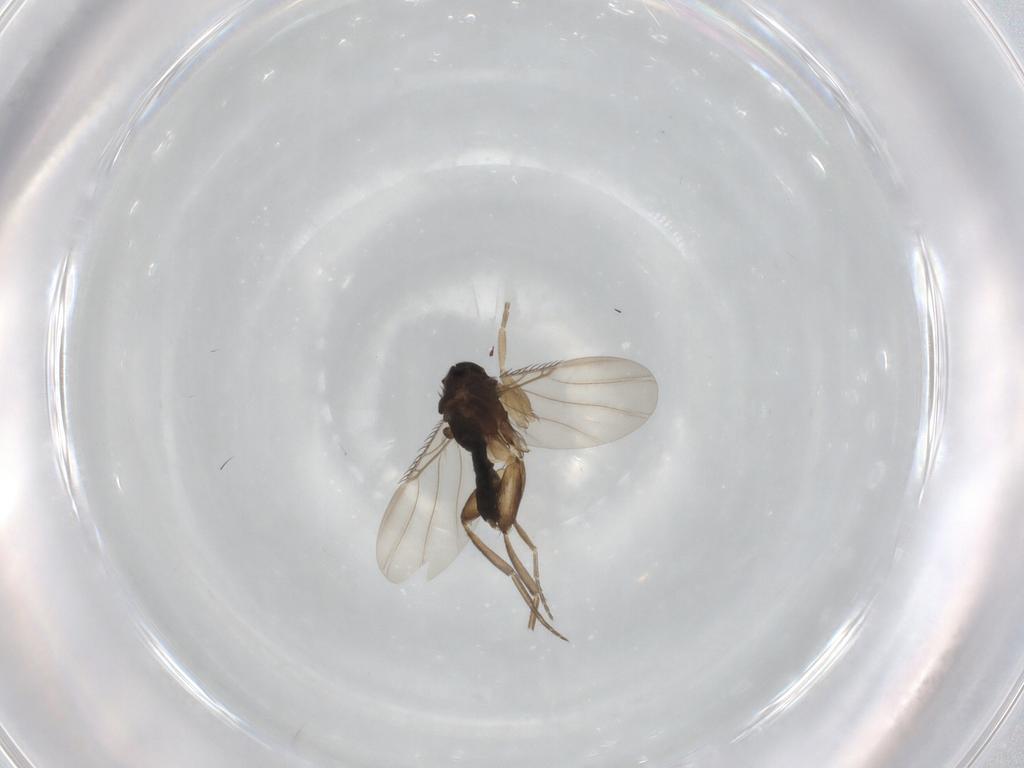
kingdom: Animalia
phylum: Arthropoda
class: Insecta
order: Diptera
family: Phoridae
